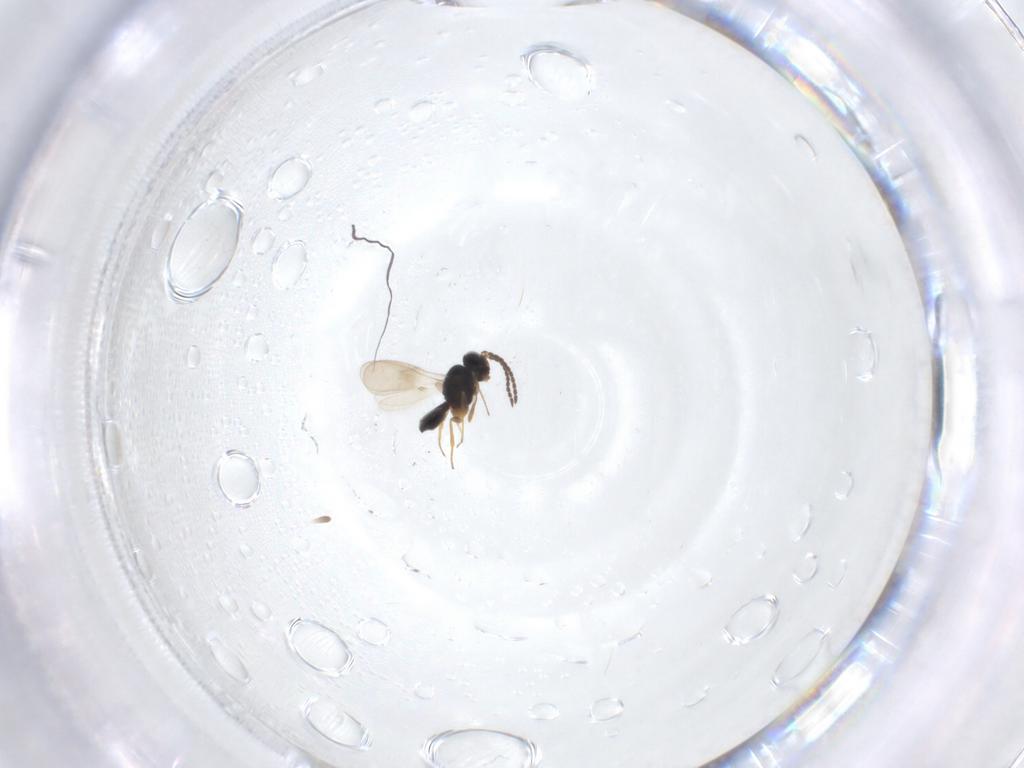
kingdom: Animalia
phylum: Arthropoda
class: Insecta
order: Hymenoptera
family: Scelionidae
